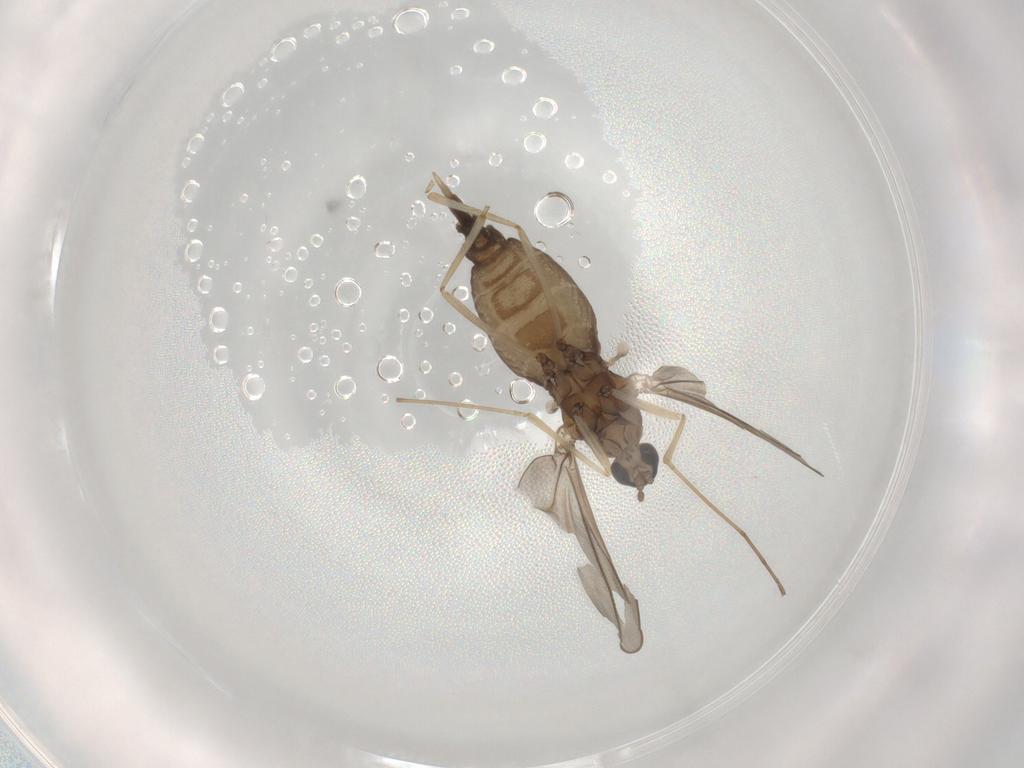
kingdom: Animalia
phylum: Arthropoda
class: Insecta
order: Diptera
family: Cecidomyiidae
